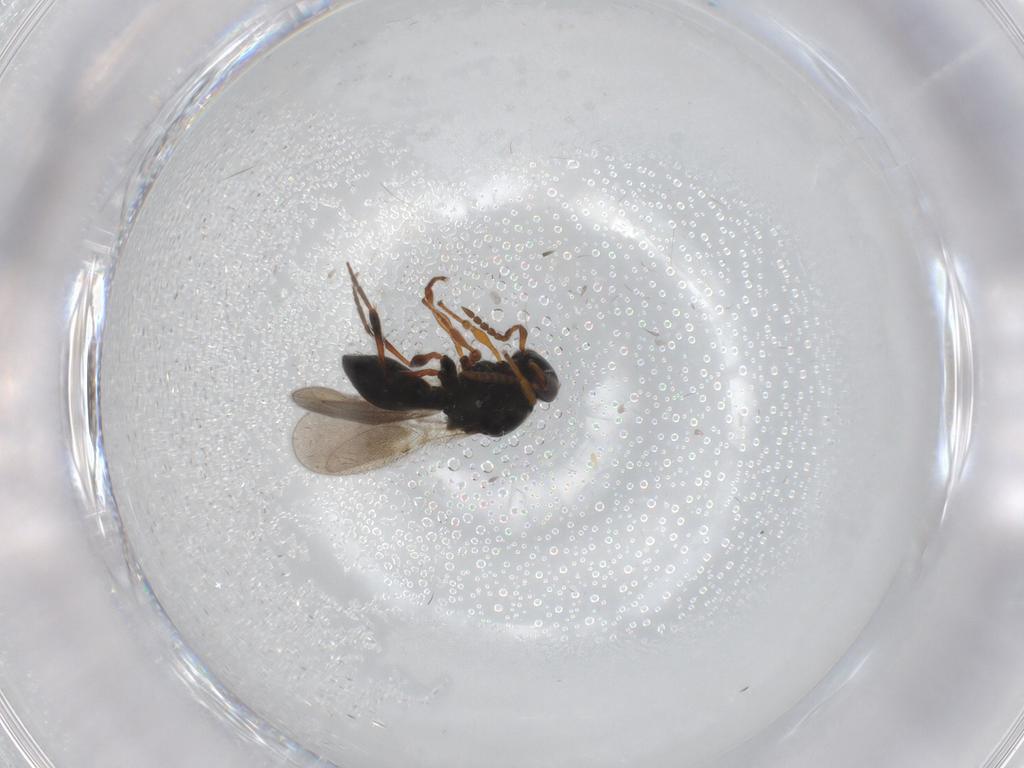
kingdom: Animalia
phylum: Arthropoda
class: Insecta
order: Hymenoptera
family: Platygastridae
